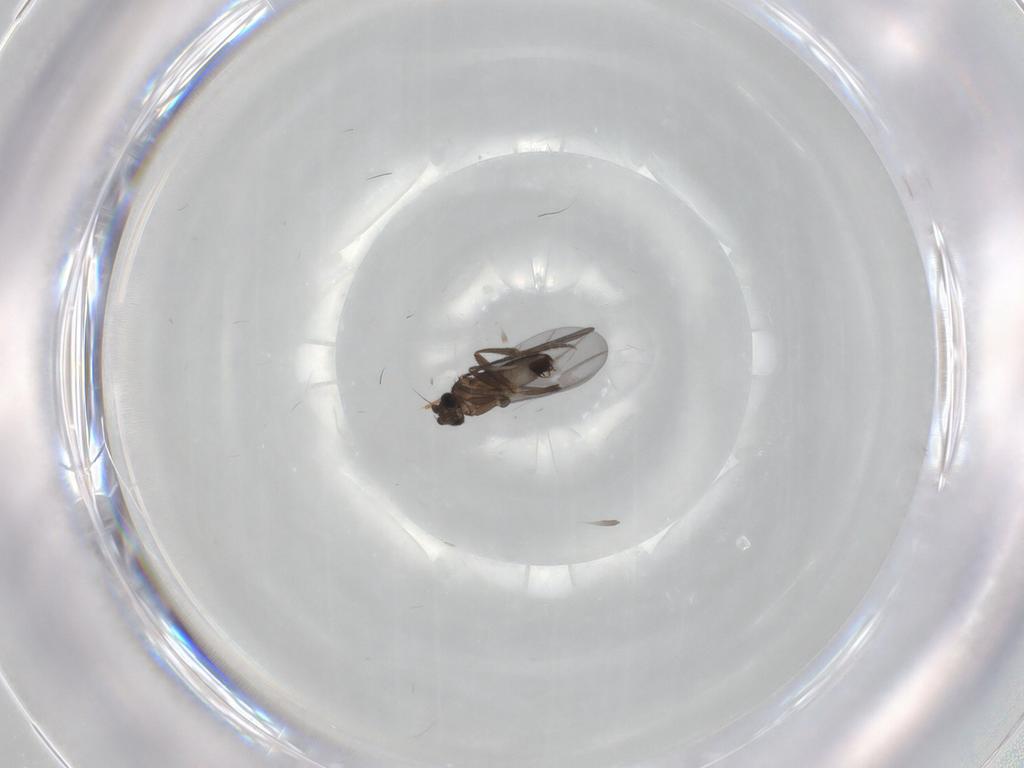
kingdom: Animalia
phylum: Arthropoda
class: Insecta
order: Diptera
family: Phoridae
